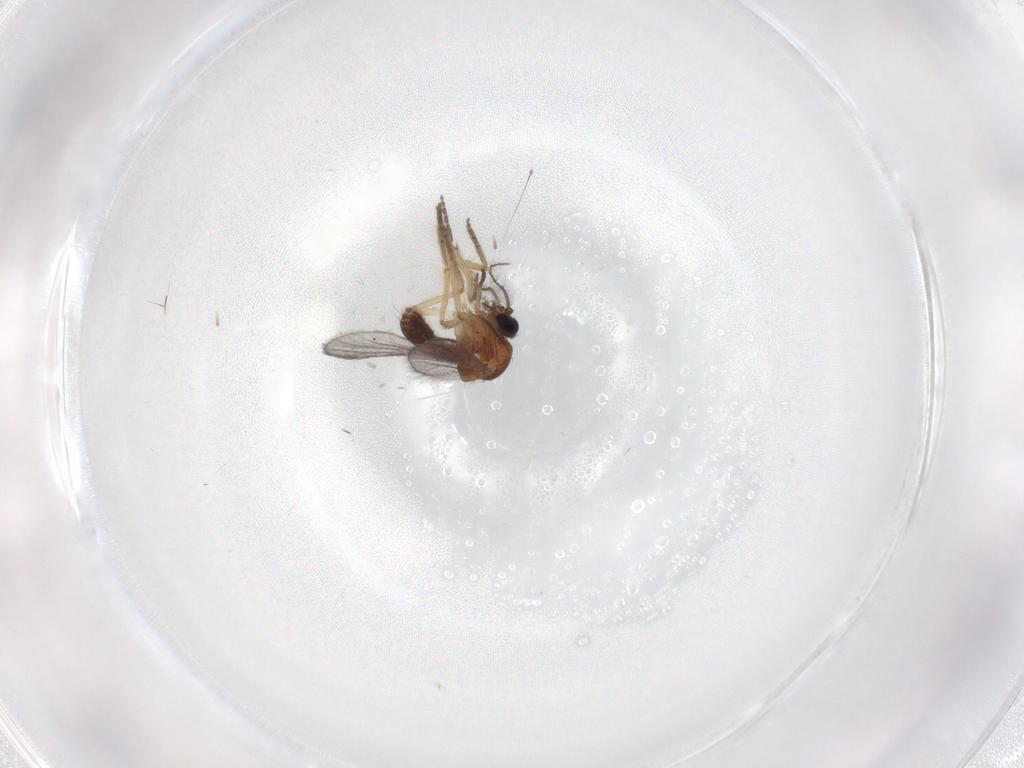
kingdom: Animalia
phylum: Arthropoda
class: Insecta
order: Diptera
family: Ceratopogonidae
